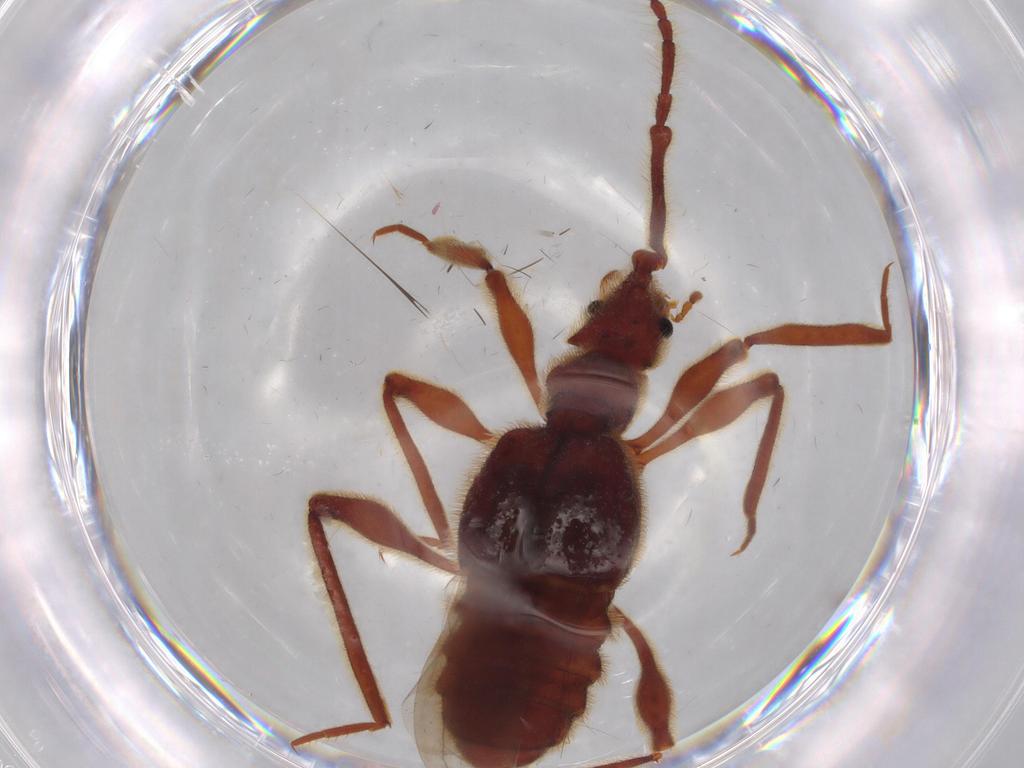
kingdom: Animalia
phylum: Arthropoda
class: Insecta
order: Coleoptera
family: Staphylinidae
